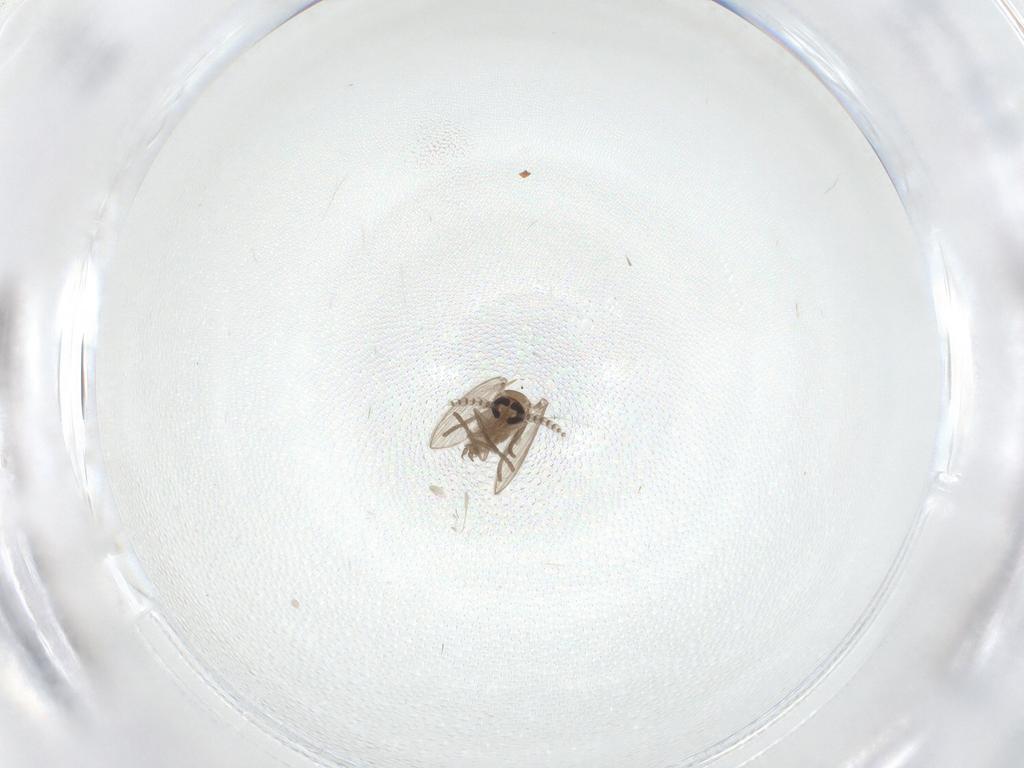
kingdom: Animalia
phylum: Arthropoda
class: Insecta
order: Diptera
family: Psychodidae
